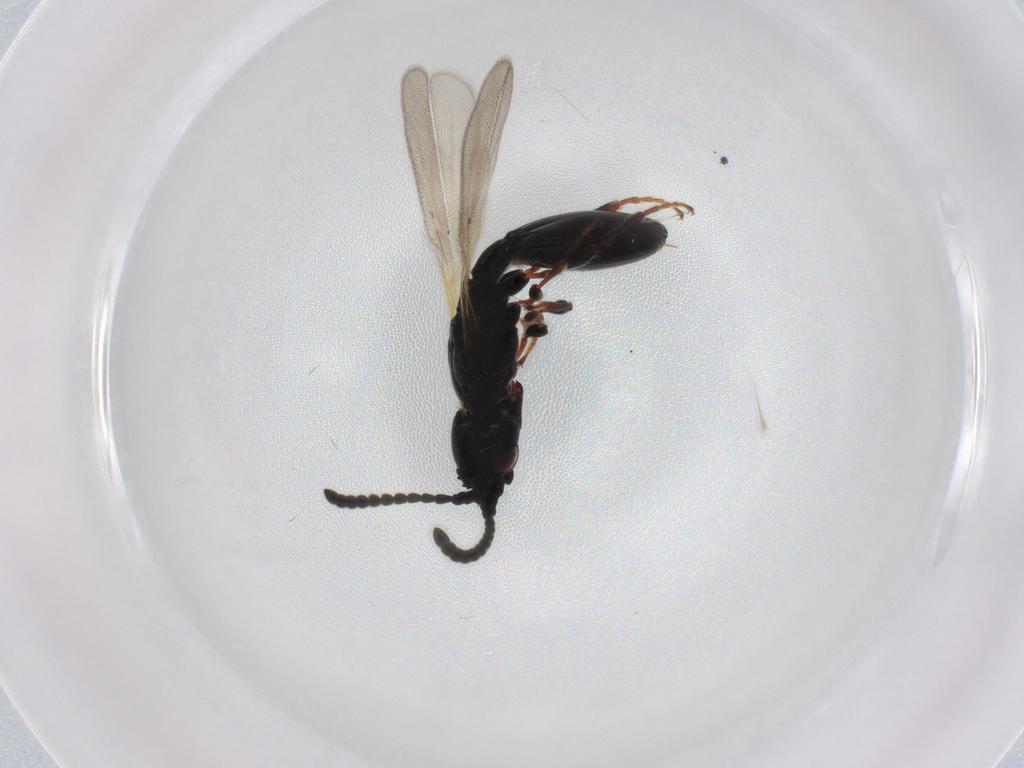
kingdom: Animalia
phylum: Arthropoda
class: Insecta
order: Hymenoptera
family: Diapriidae
